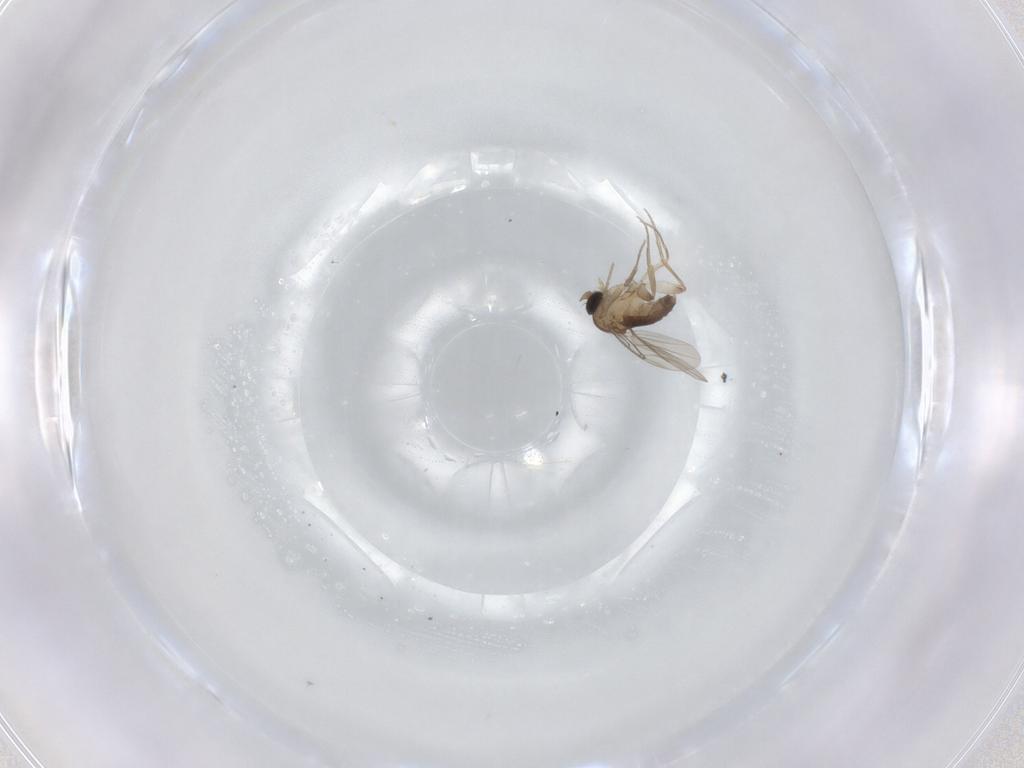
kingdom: Animalia
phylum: Arthropoda
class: Insecta
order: Diptera
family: Phoridae
